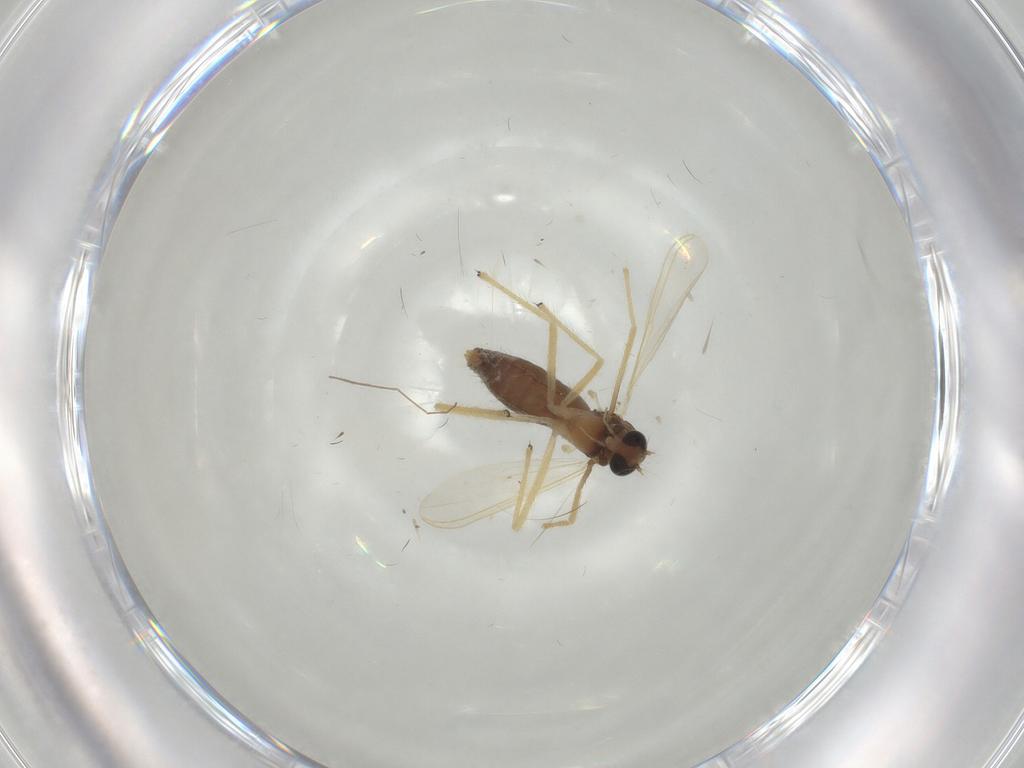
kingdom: Animalia
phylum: Arthropoda
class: Insecta
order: Diptera
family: Chironomidae
